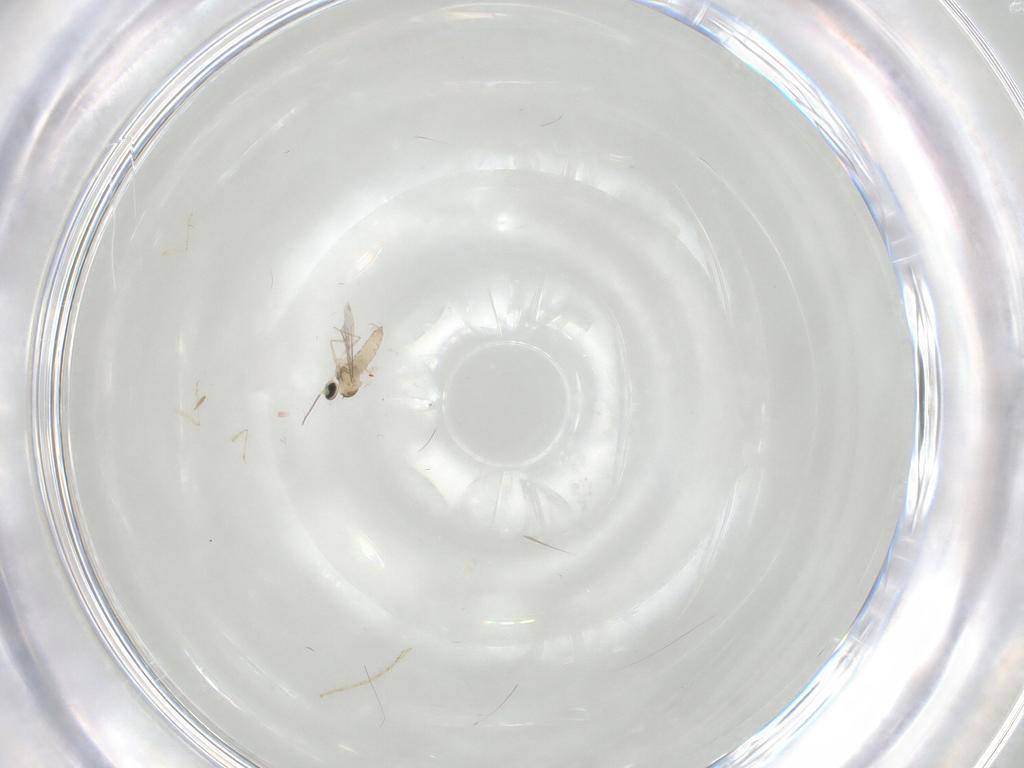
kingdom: Animalia
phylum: Arthropoda
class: Insecta
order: Diptera
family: Cecidomyiidae
